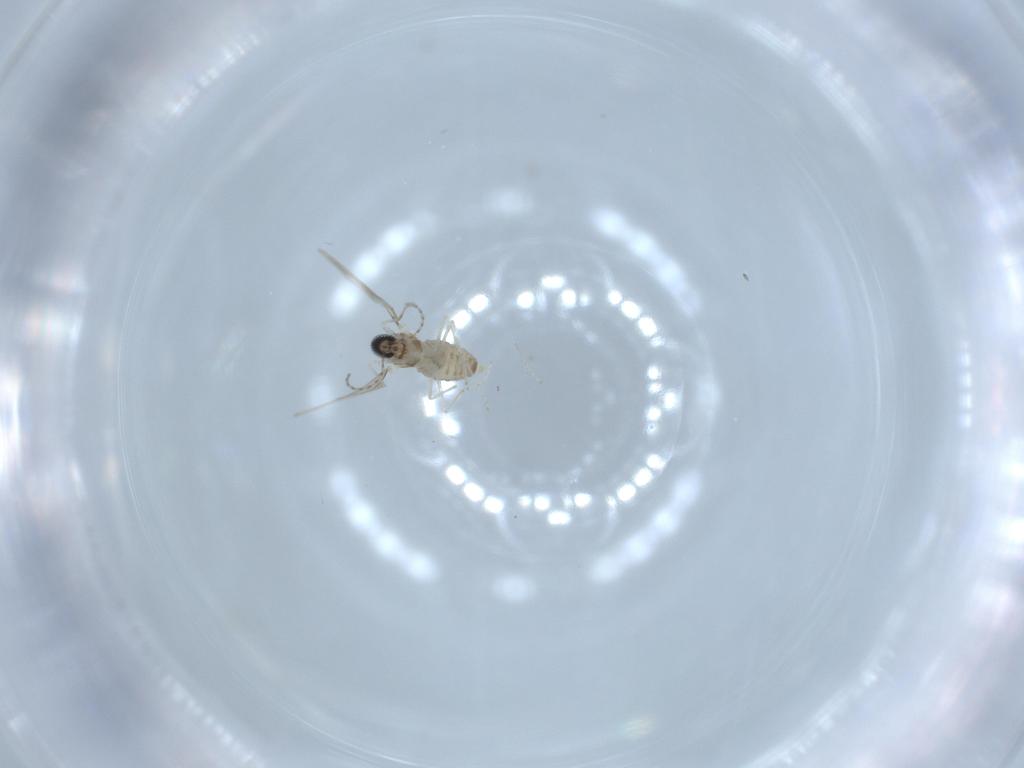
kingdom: Animalia
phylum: Arthropoda
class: Insecta
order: Diptera
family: Cecidomyiidae
